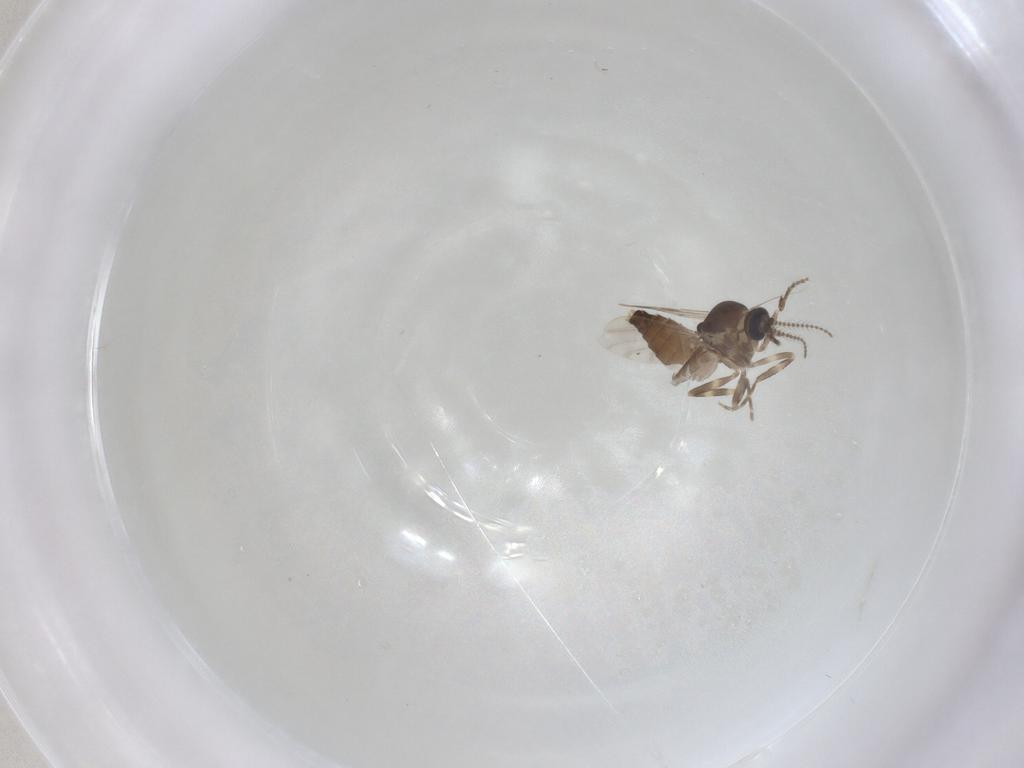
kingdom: Animalia
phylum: Arthropoda
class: Insecta
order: Diptera
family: Ceratopogonidae
